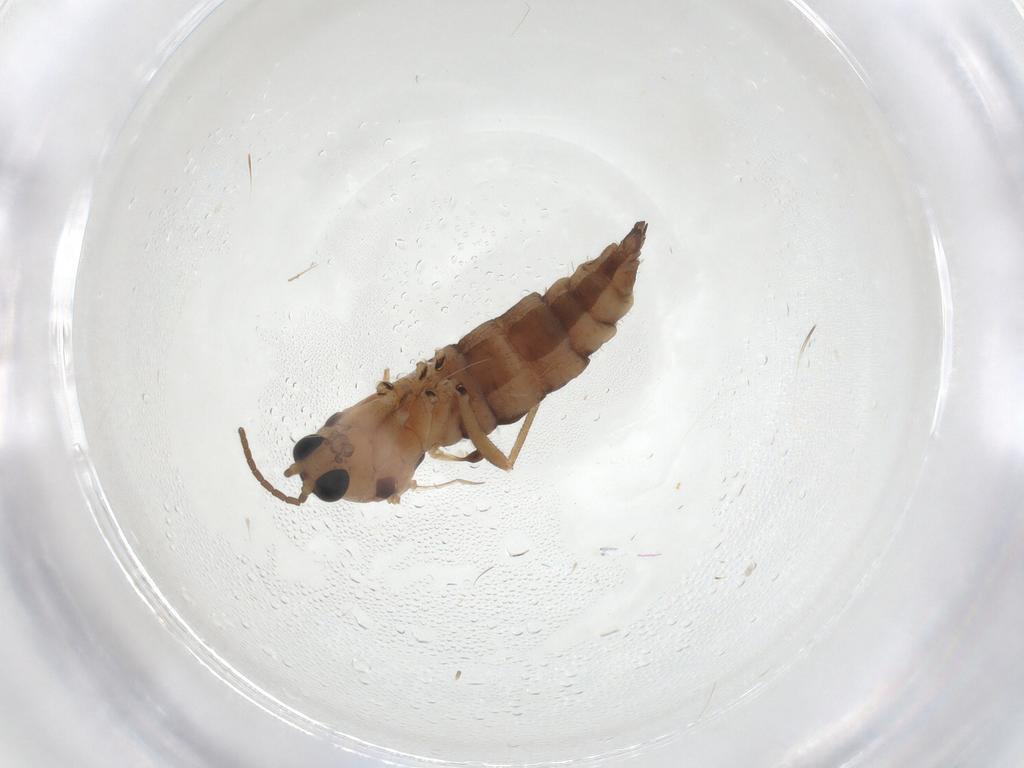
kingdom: Animalia
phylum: Arthropoda
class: Insecta
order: Diptera
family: Sciaridae
